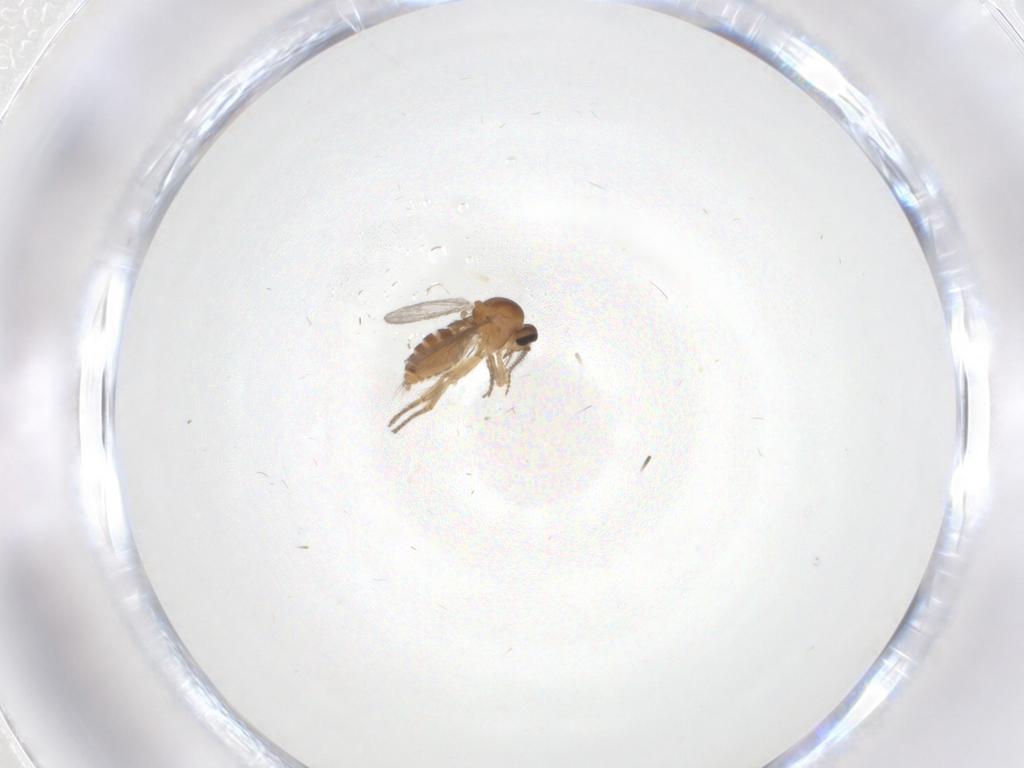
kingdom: Animalia
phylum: Arthropoda
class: Insecta
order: Diptera
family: Ceratopogonidae
